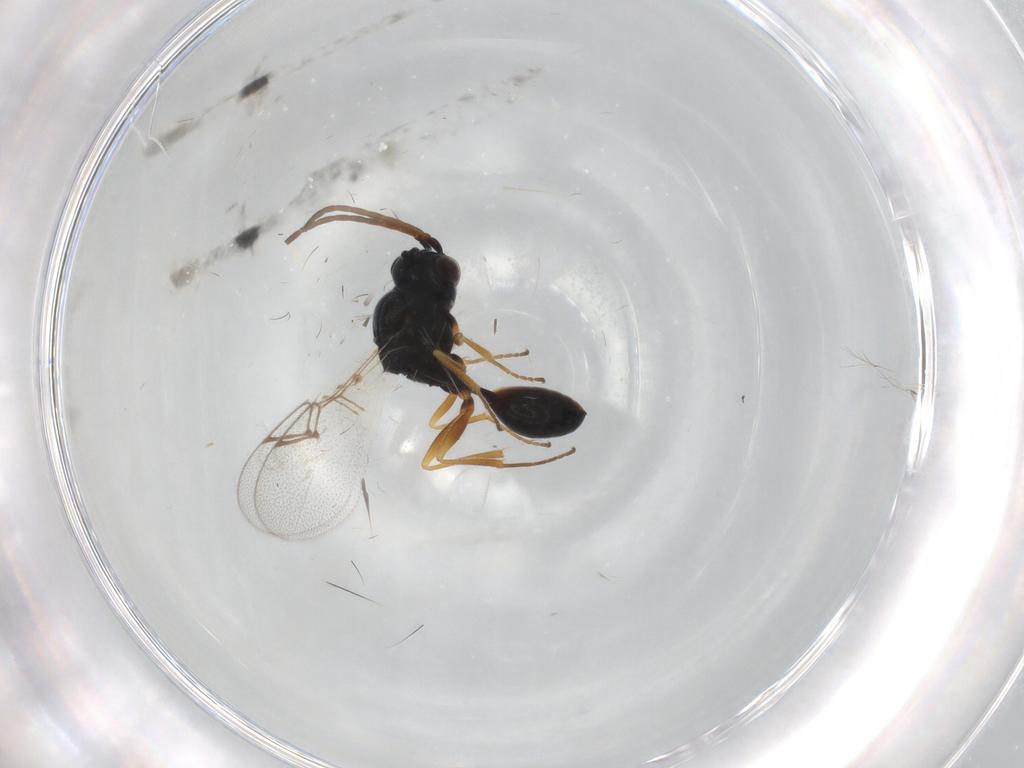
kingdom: Animalia
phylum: Arthropoda
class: Insecta
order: Hymenoptera
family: Figitidae
